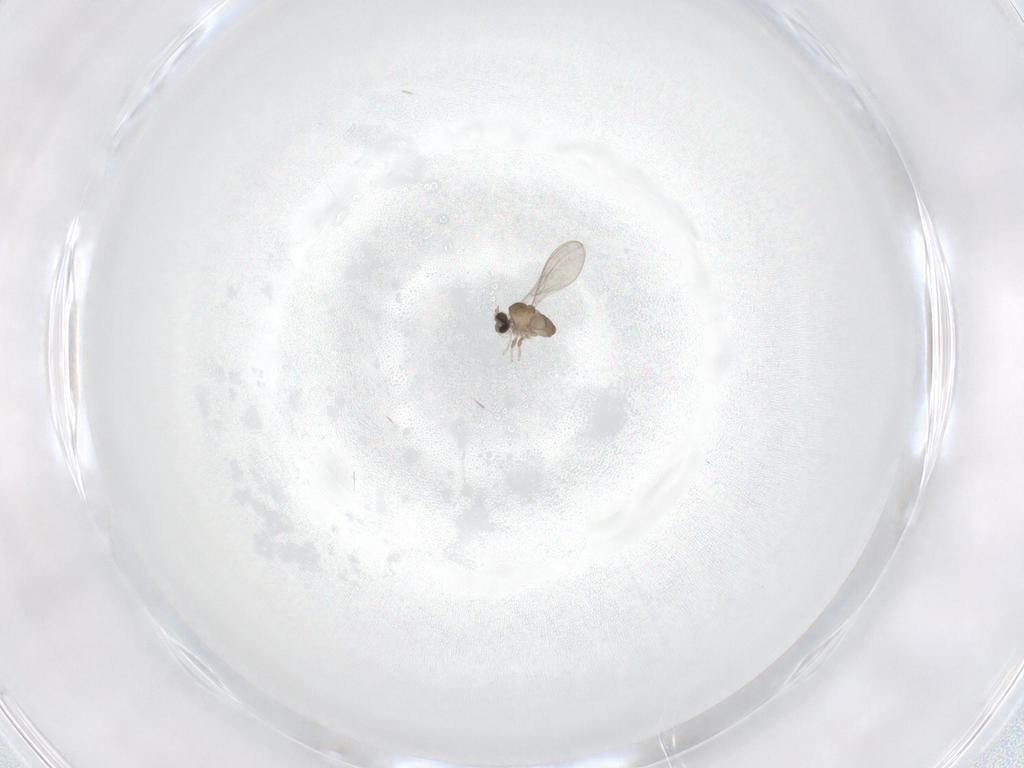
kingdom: Animalia
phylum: Arthropoda
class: Insecta
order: Diptera
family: Cecidomyiidae
